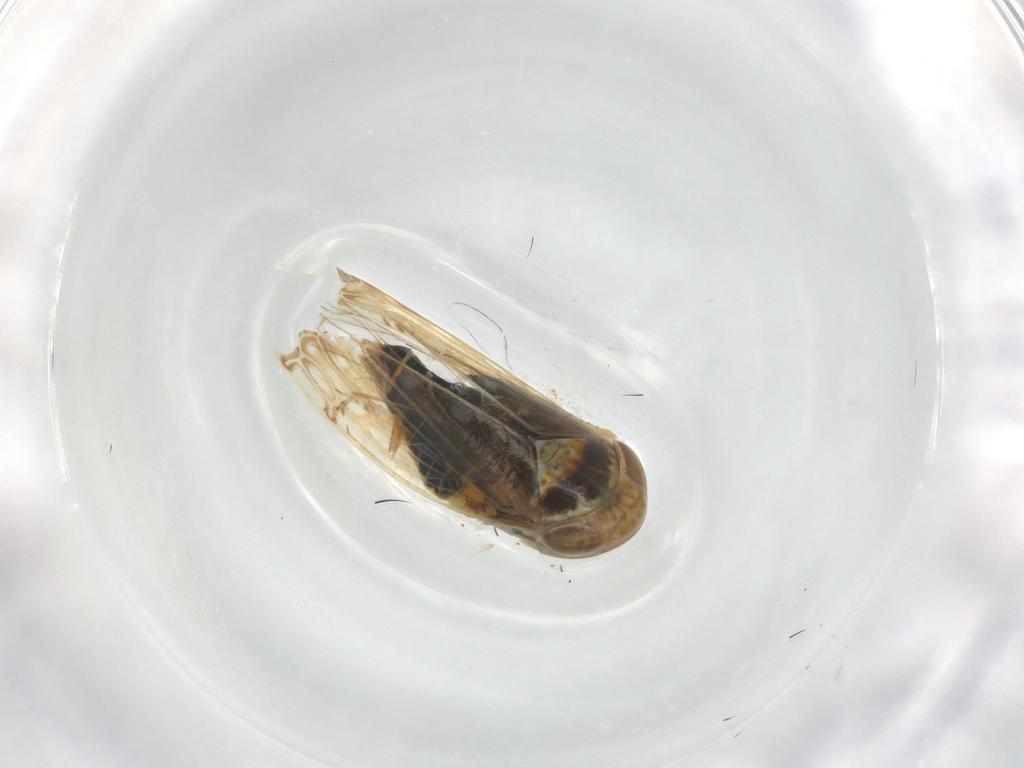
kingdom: Animalia
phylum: Arthropoda
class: Insecta
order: Hemiptera
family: Cicadellidae
